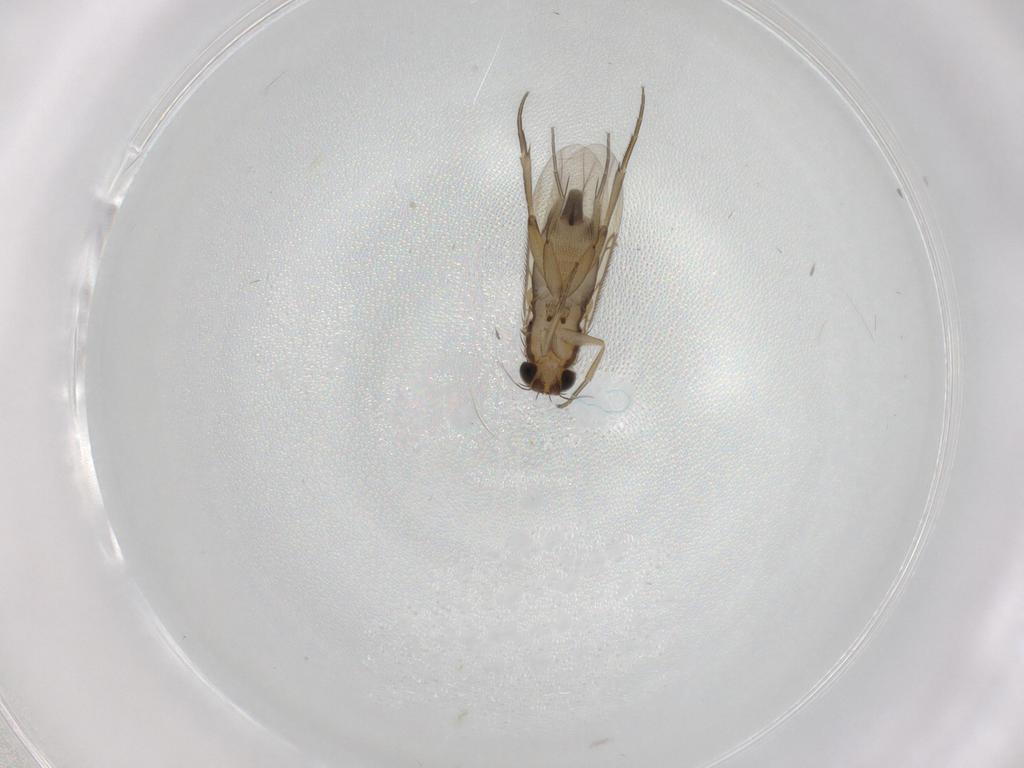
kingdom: Animalia
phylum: Arthropoda
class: Insecta
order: Diptera
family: Phoridae
